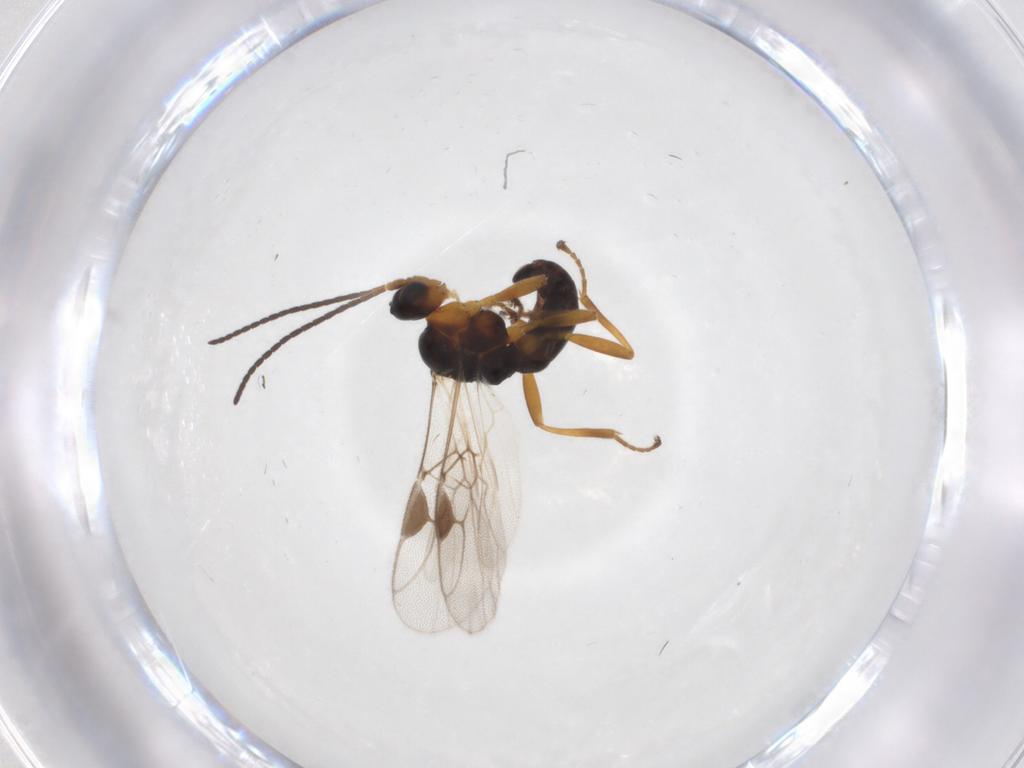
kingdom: Animalia
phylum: Arthropoda
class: Insecta
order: Hymenoptera
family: Braconidae
